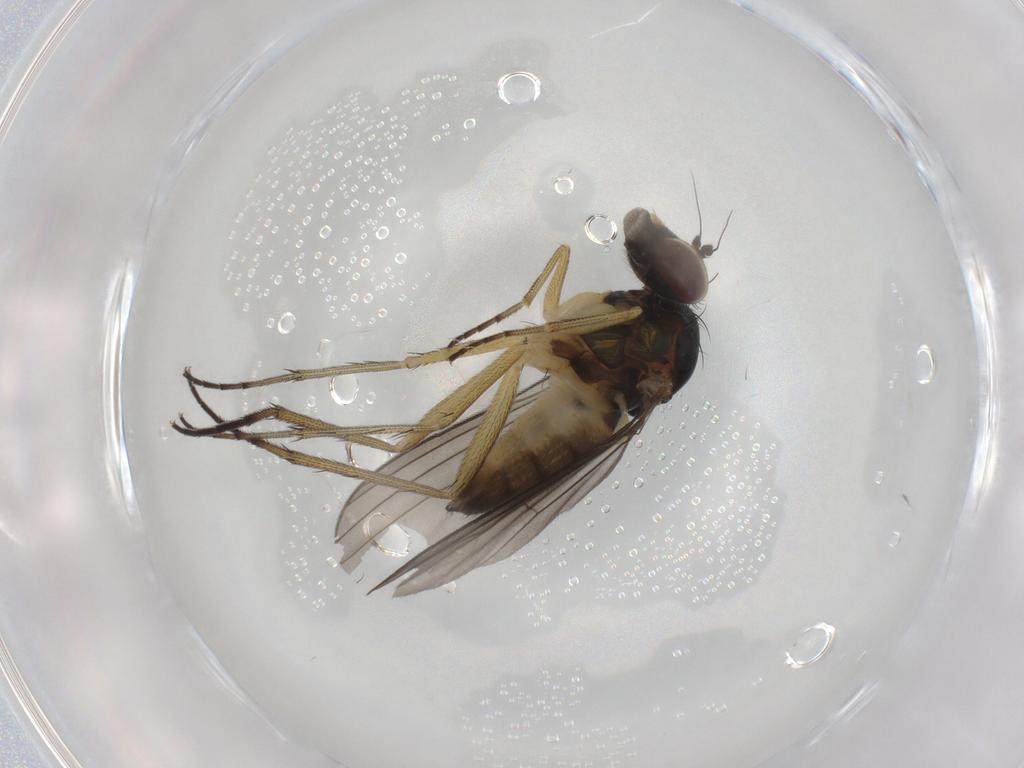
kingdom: Animalia
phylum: Arthropoda
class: Insecta
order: Diptera
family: Dolichopodidae
